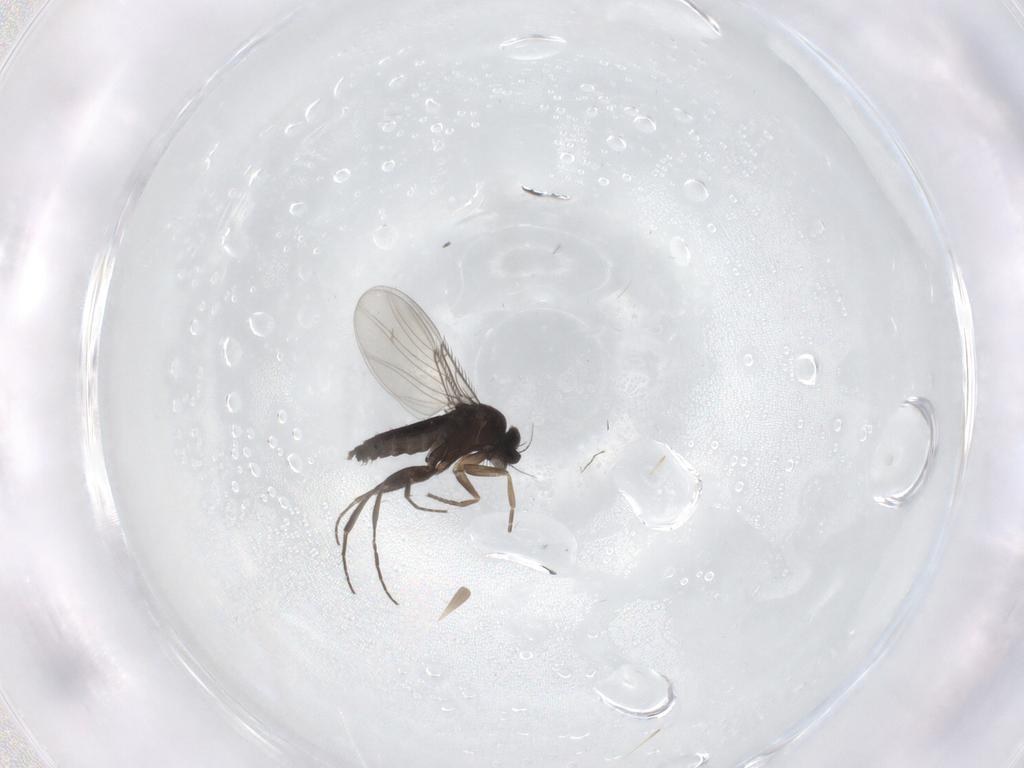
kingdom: Animalia
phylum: Arthropoda
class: Insecta
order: Diptera
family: Phoridae
